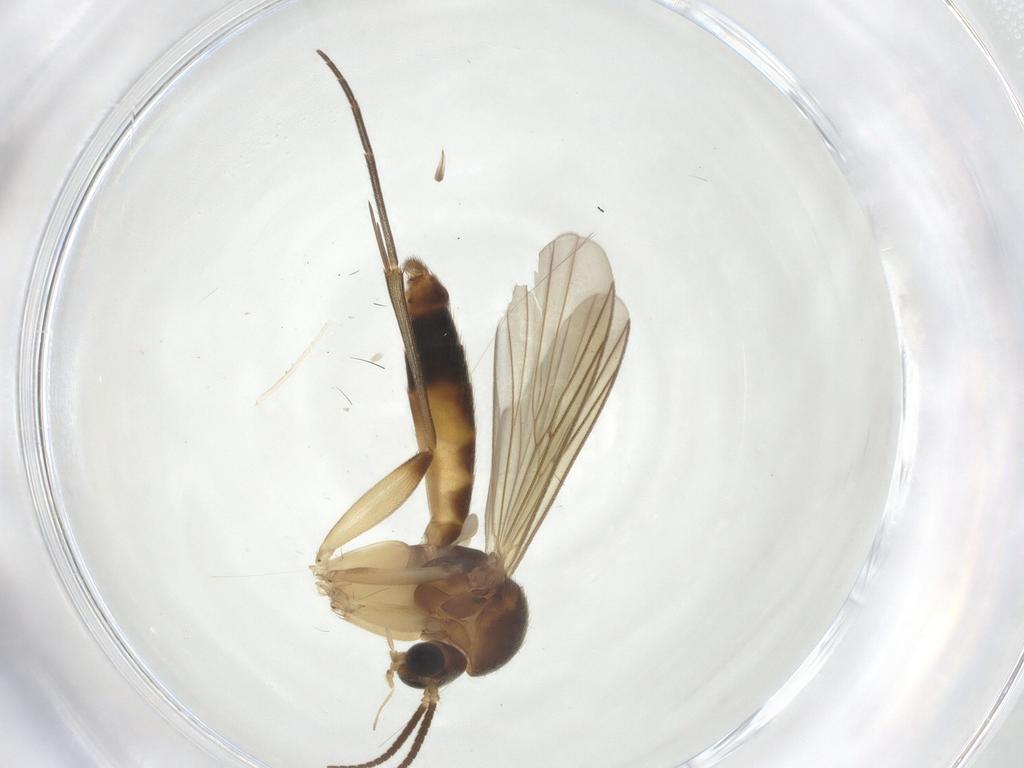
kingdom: Animalia
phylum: Arthropoda
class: Insecta
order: Diptera
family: Mycetophilidae
